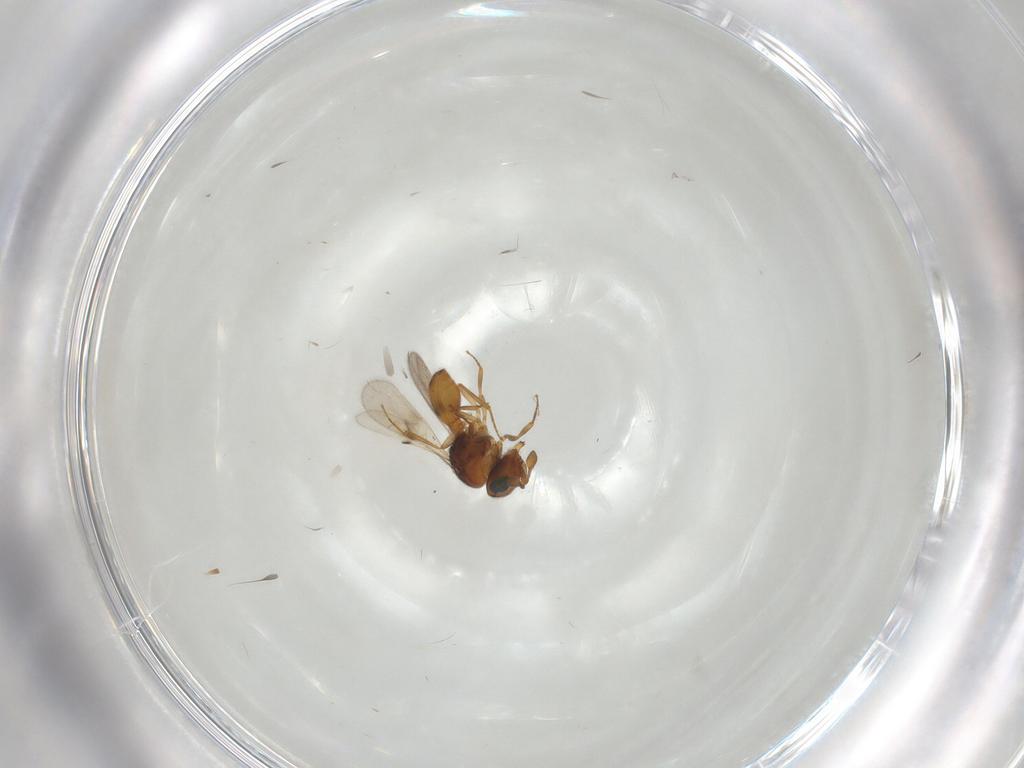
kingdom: Animalia
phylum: Arthropoda
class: Insecta
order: Hymenoptera
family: Scelionidae
